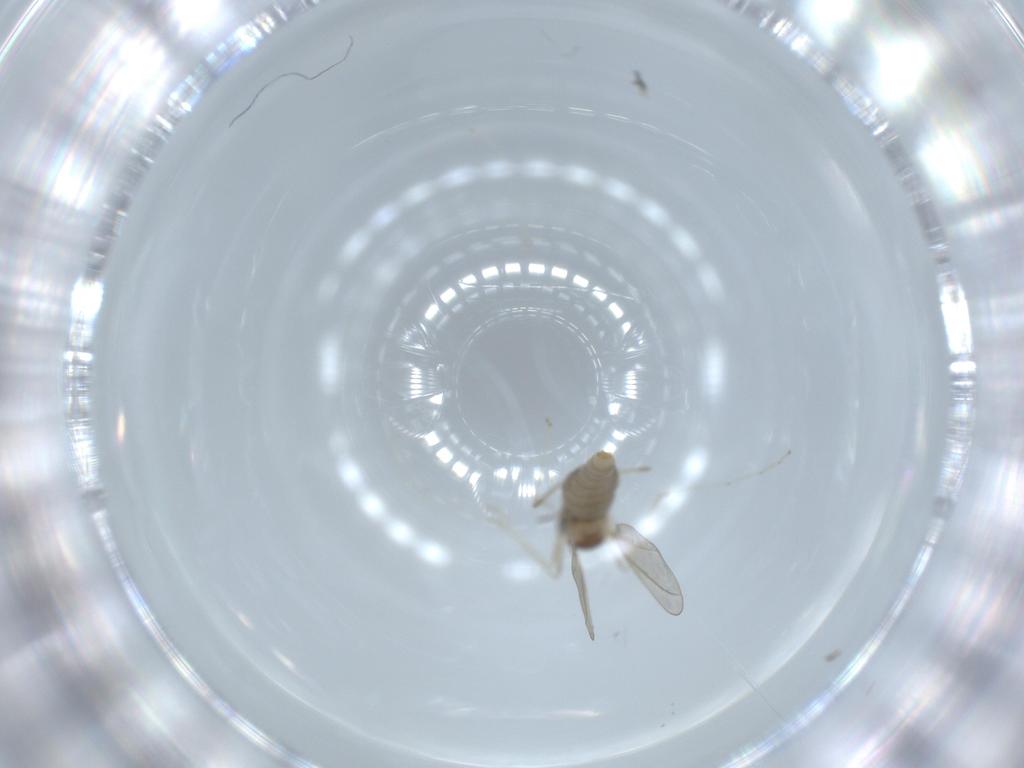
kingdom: Animalia
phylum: Arthropoda
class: Insecta
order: Diptera
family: Cecidomyiidae
